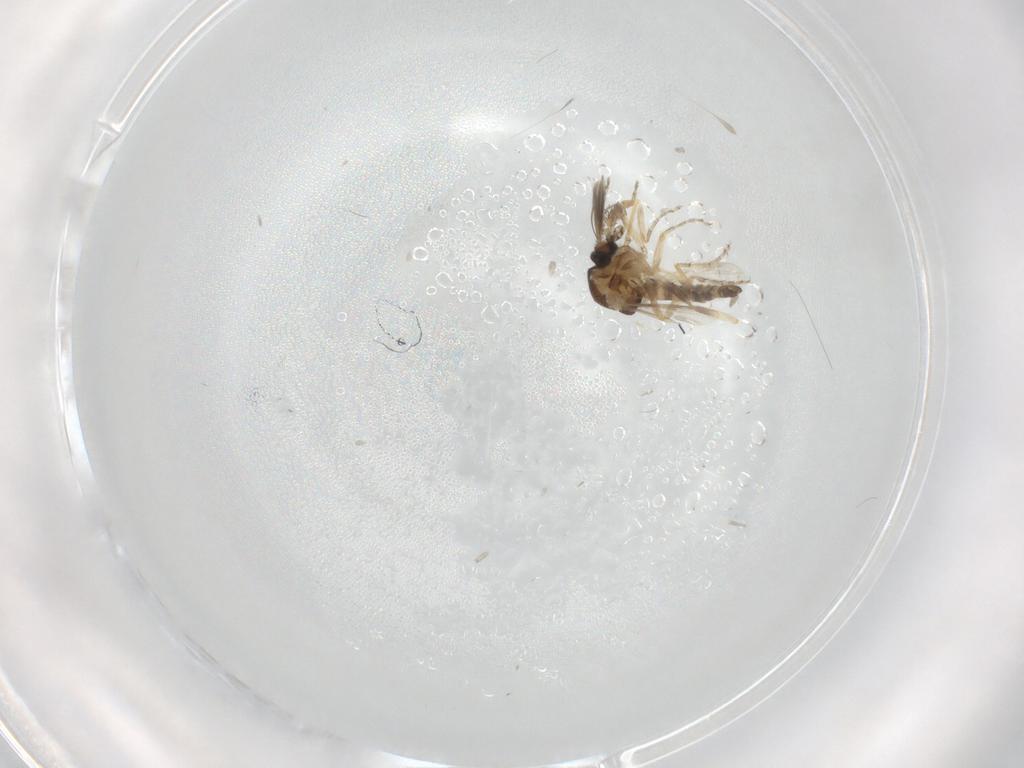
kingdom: Animalia
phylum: Arthropoda
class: Insecta
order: Diptera
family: Ceratopogonidae
